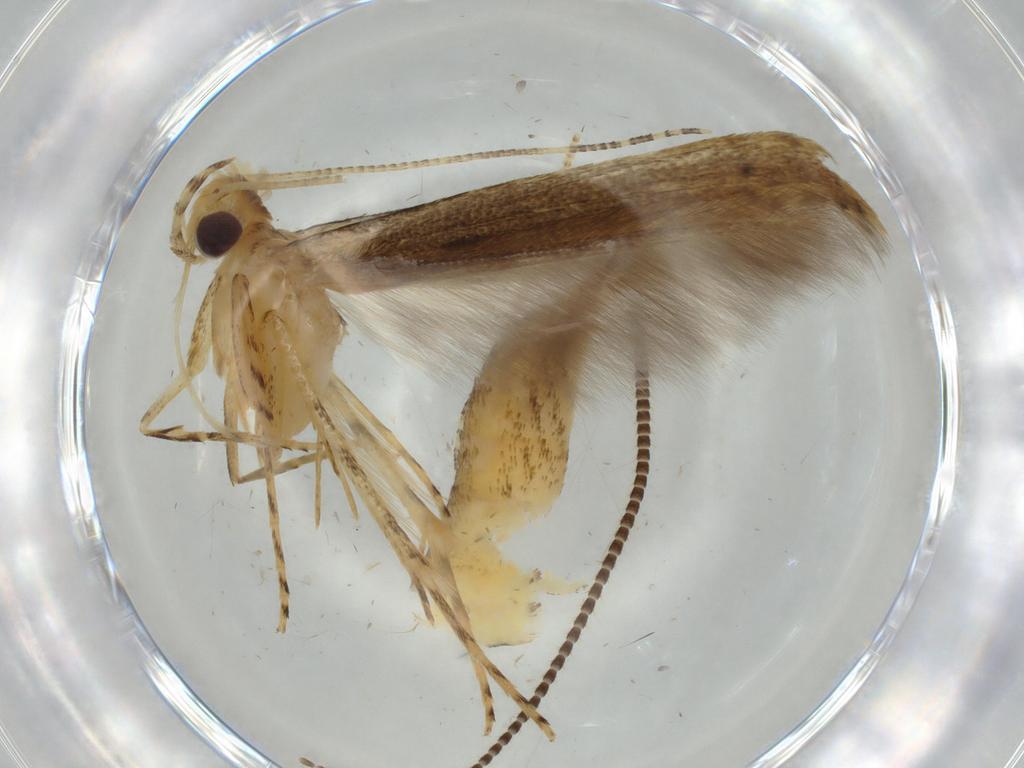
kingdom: Animalia
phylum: Arthropoda
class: Insecta
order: Lepidoptera
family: Batrachedridae
